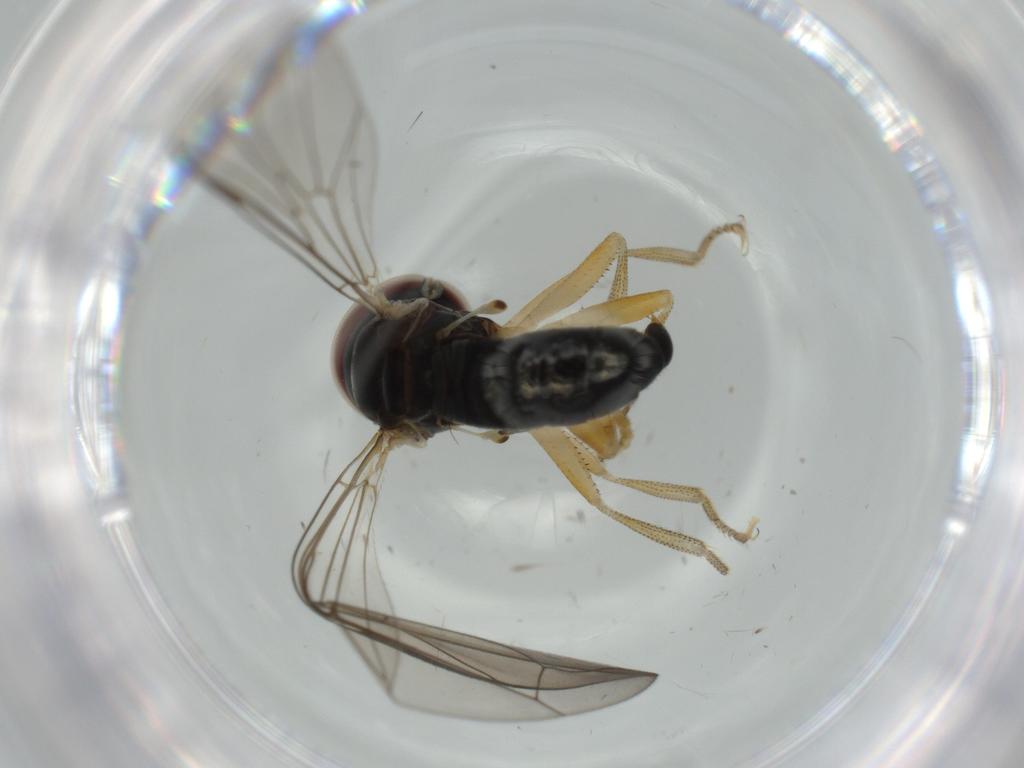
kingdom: Animalia
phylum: Arthropoda
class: Insecta
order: Diptera
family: Pipunculidae
